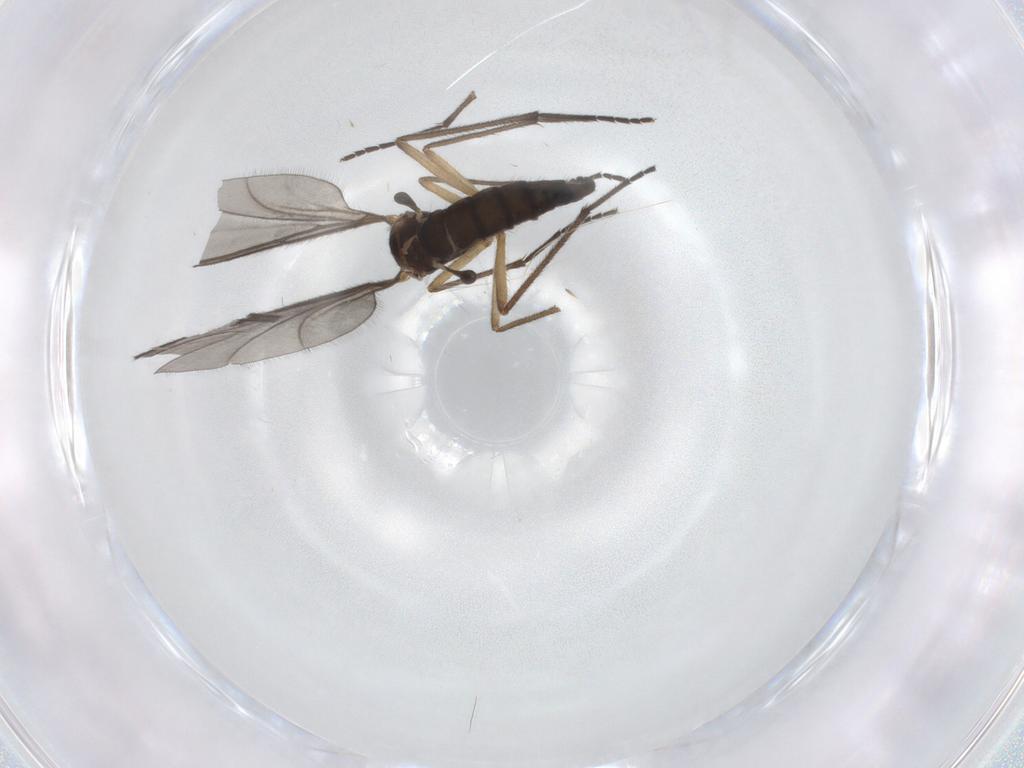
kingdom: Animalia
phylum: Arthropoda
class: Insecta
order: Diptera
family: Sciaridae
